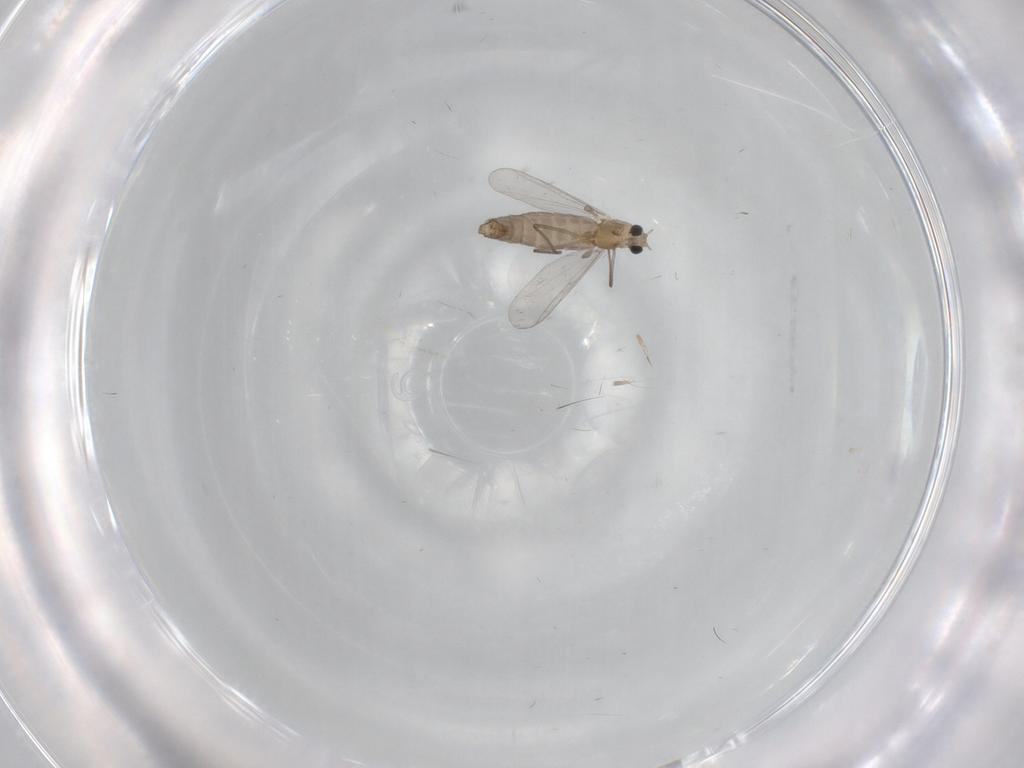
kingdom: Animalia
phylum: Arthropoda
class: Insecta
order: Diptera
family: Chironomidae
